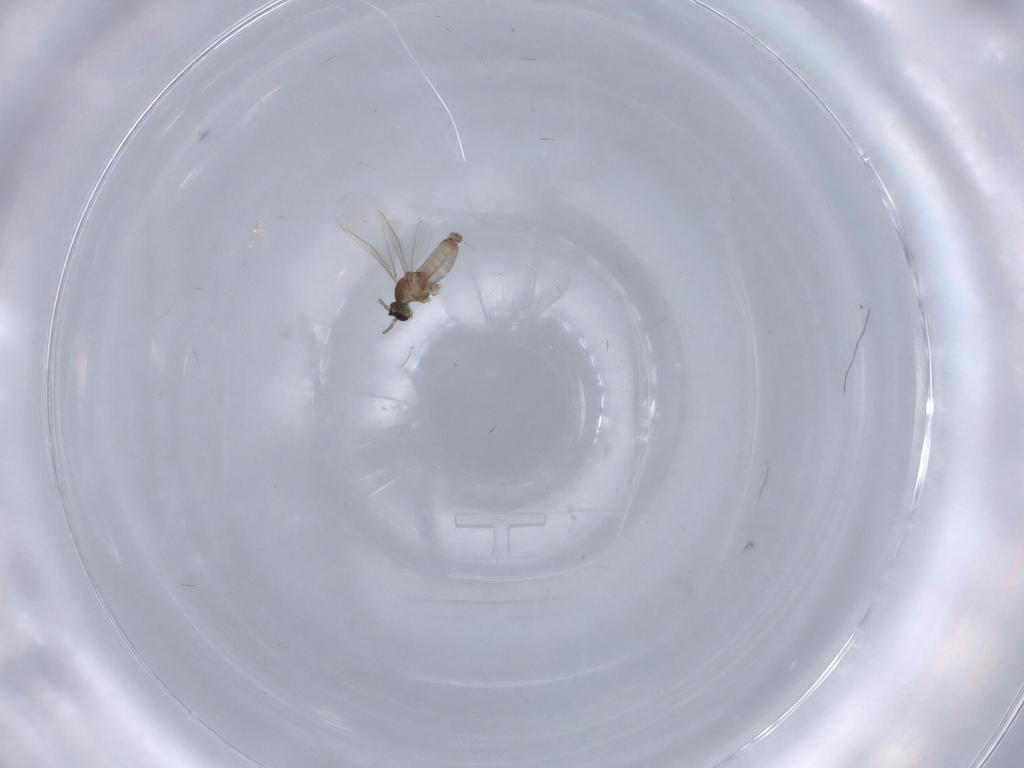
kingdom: Animalia
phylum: Arthropoda
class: Insecta
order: Diptera
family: Cecidomyiidae
